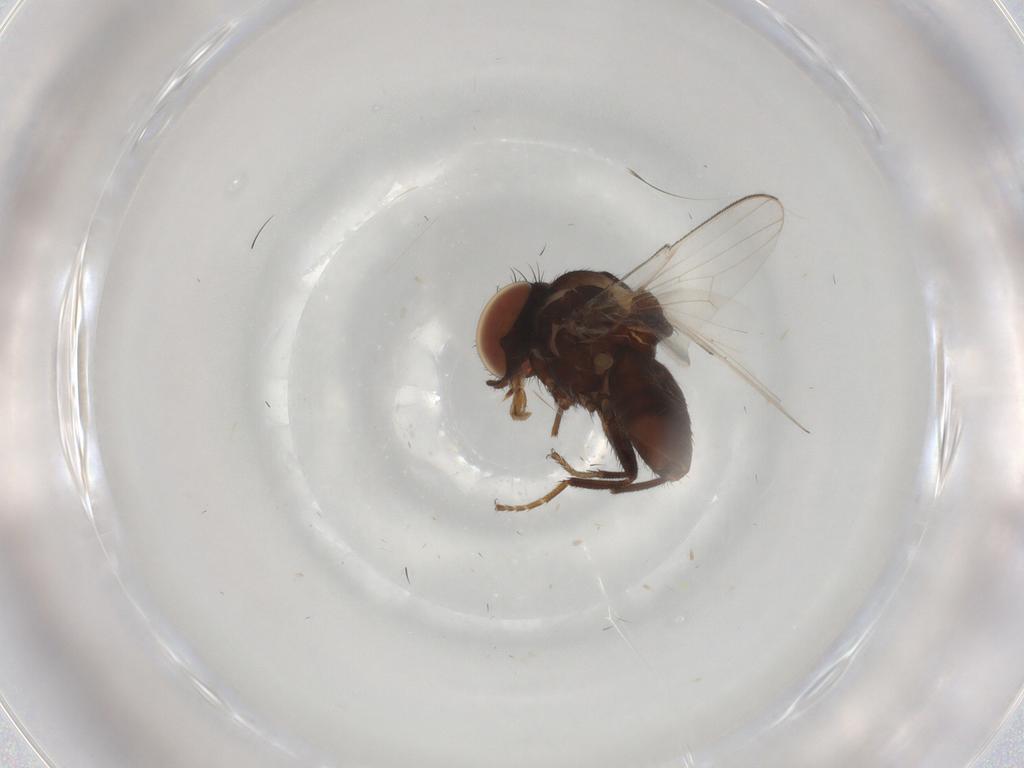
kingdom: Animalia
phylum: Arthropoda
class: Insecta
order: Diptera
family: Milichiidae
